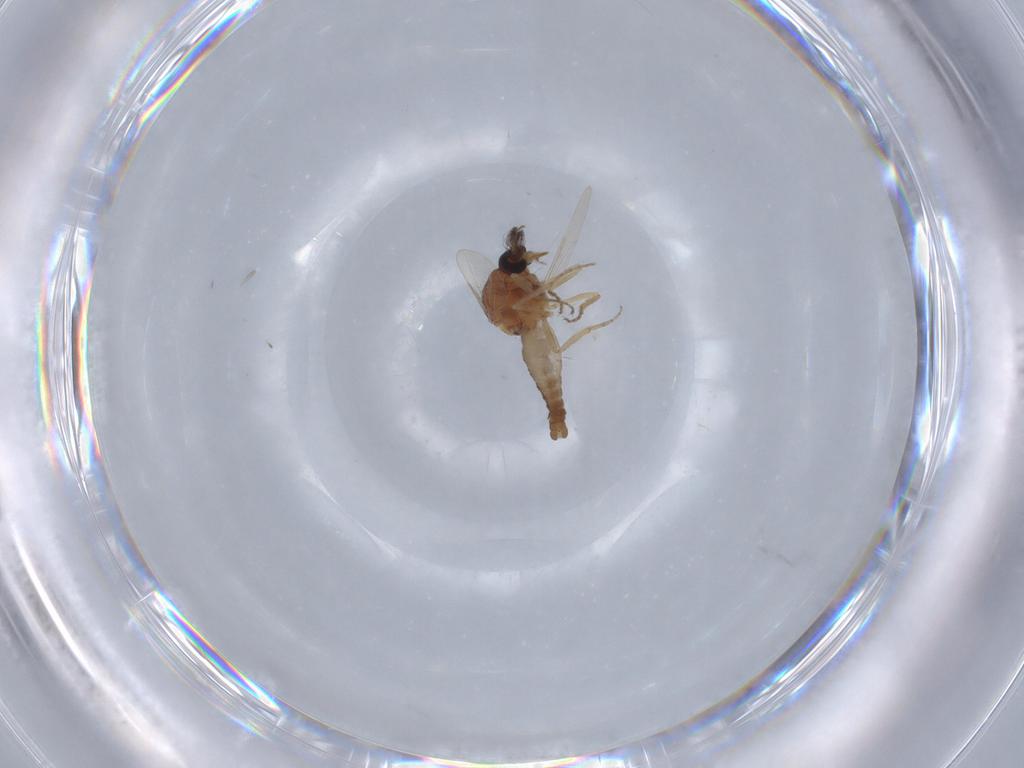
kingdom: Animalia
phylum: Arthropoda
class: Insecta
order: Diptera
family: Ceratopogonidae
